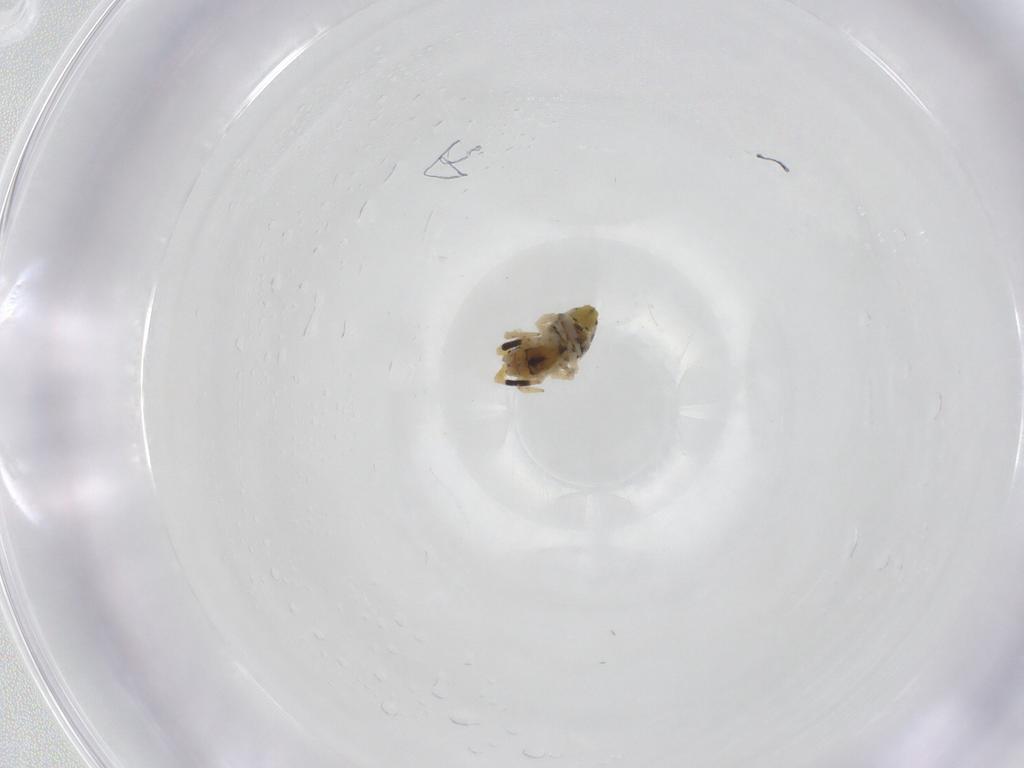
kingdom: Animalia
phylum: Arthropoda
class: Arachnida
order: Araneae
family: Uloboridae
